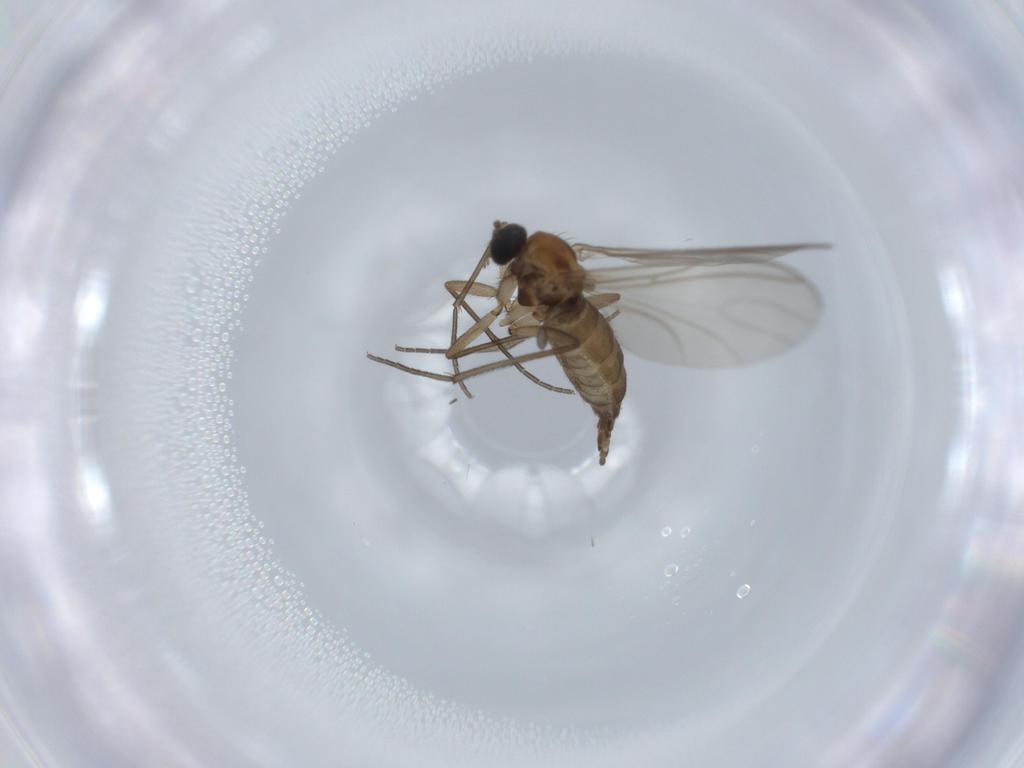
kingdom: Animalia
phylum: Arthropoda
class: Insecta
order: Diptera
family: Sciaridae
